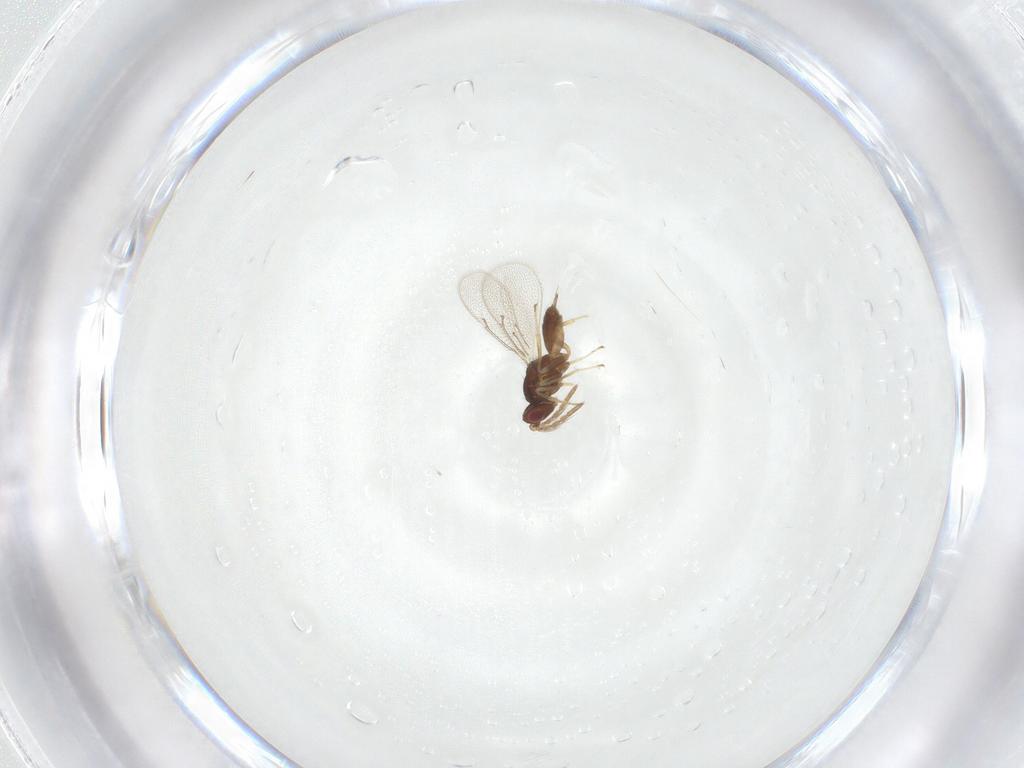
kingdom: Animalia
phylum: Arthropoda
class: Insecta
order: Hymenoptera
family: Eulophidae
